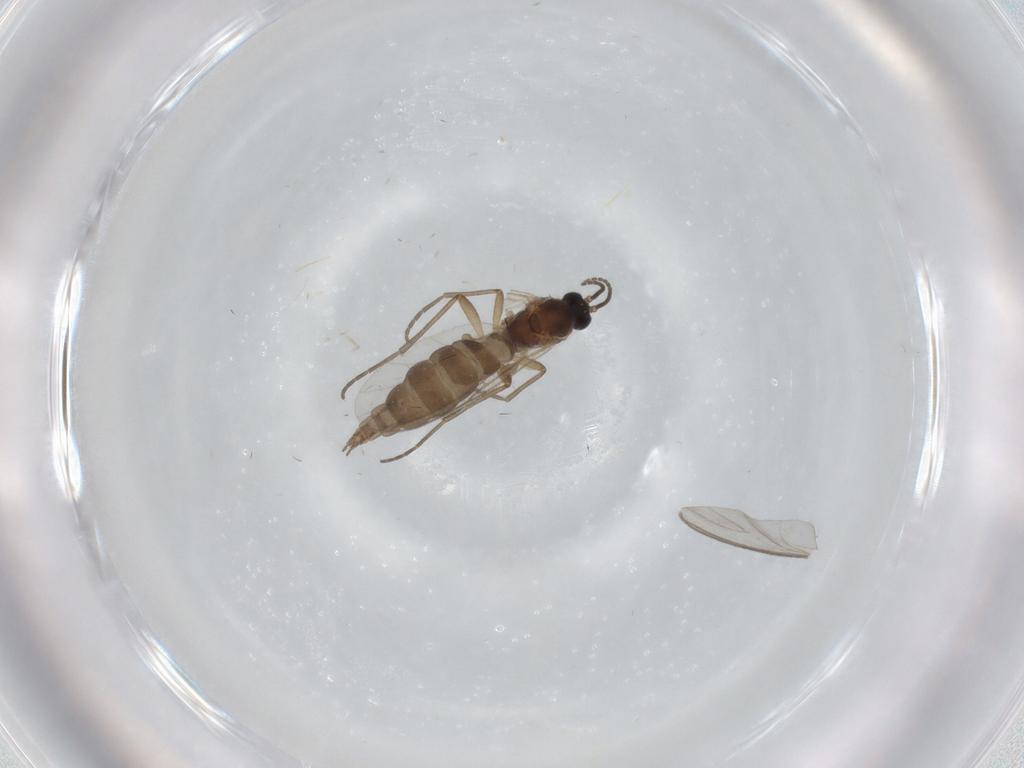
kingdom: Animalia
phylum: Arthropoda
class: Insecta
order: Diptera
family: Sciaridae
